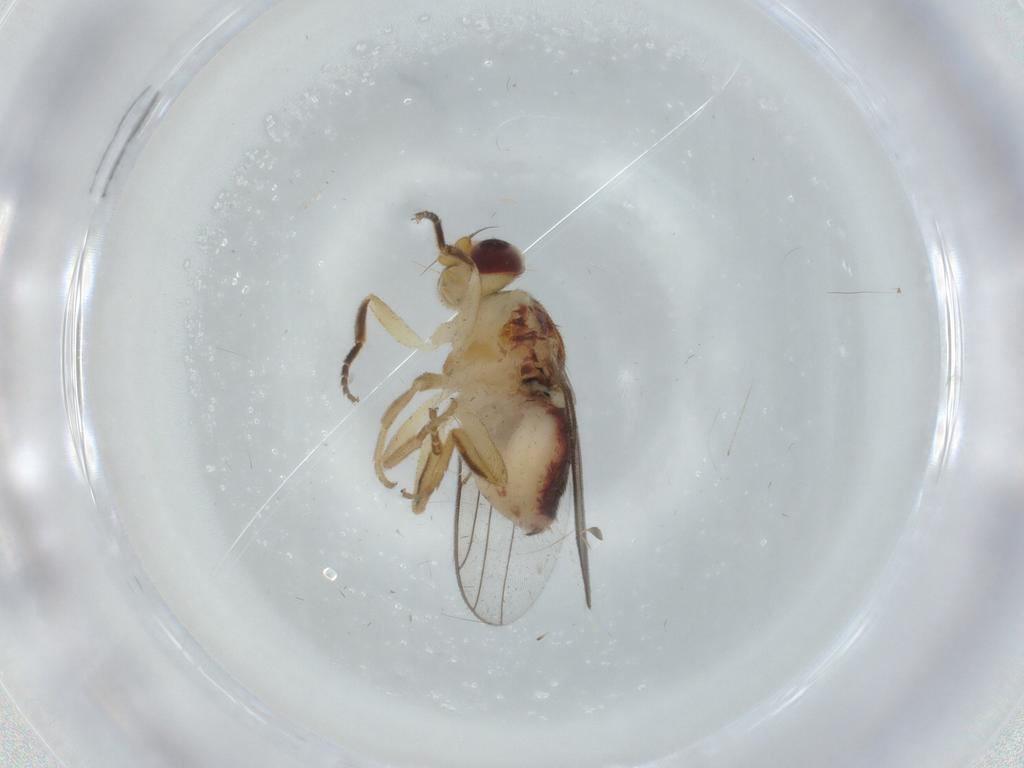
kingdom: Animalia
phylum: Arthropoda
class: Insecta
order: Diptera
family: Chloropidae
